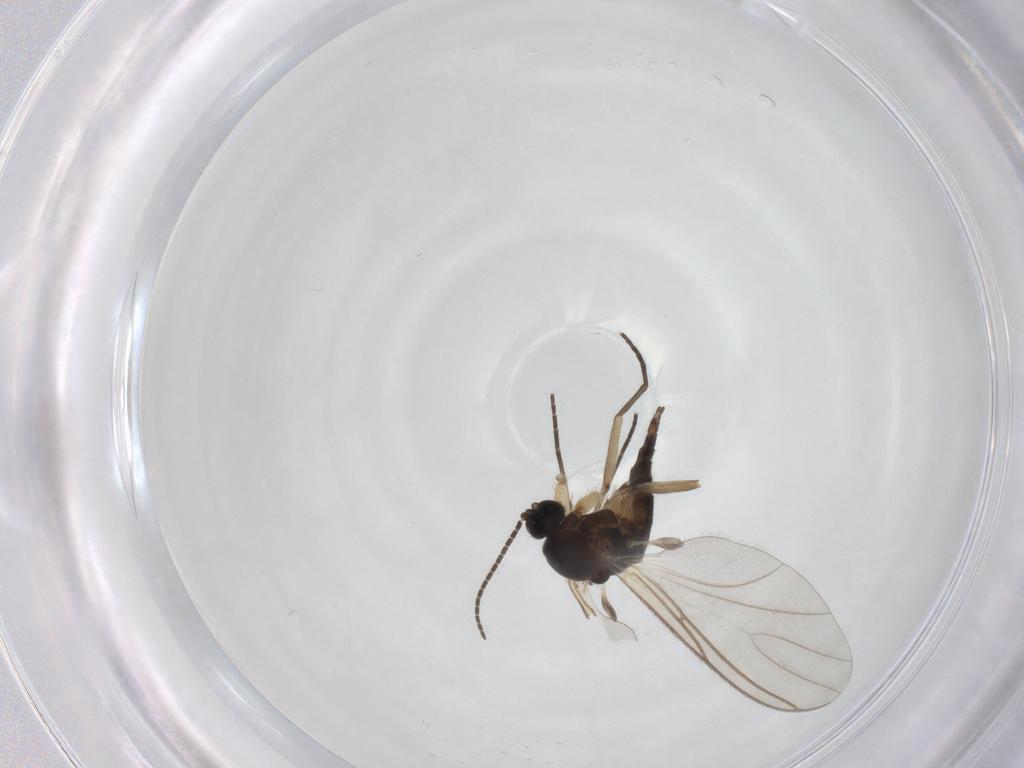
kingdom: Animalia
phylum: Arthropoda
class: Insecta
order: Diptera
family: Sciaridae
